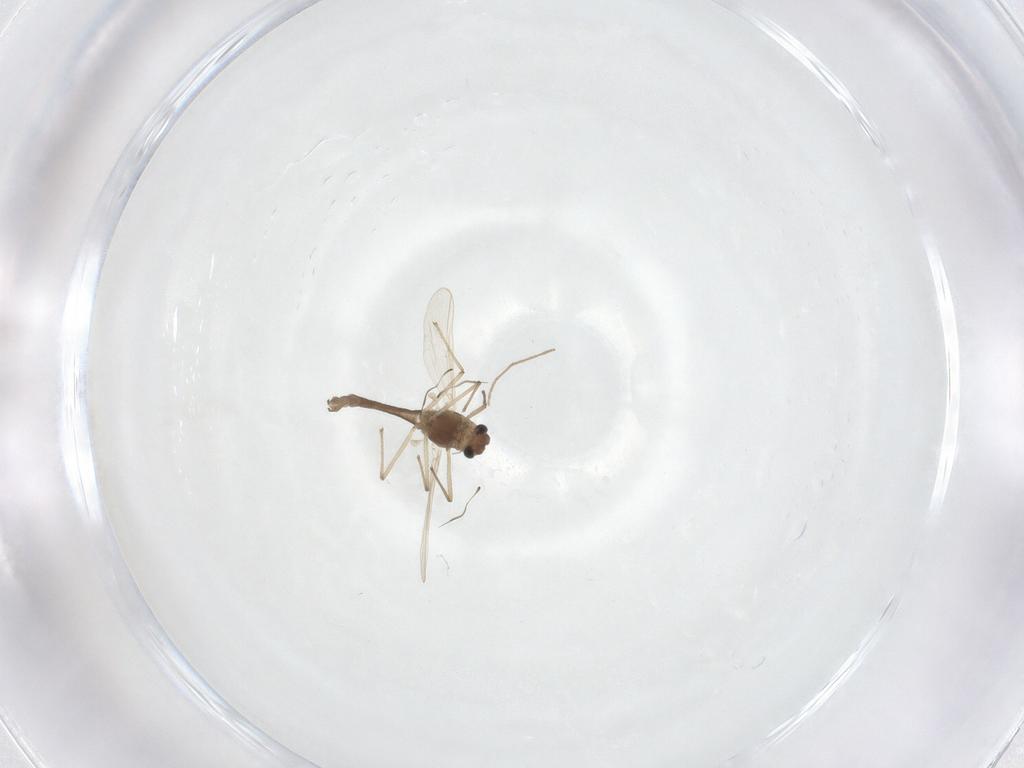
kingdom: Animalia
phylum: Arthropoda
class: Insecta
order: Diptera
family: Chironomidae
